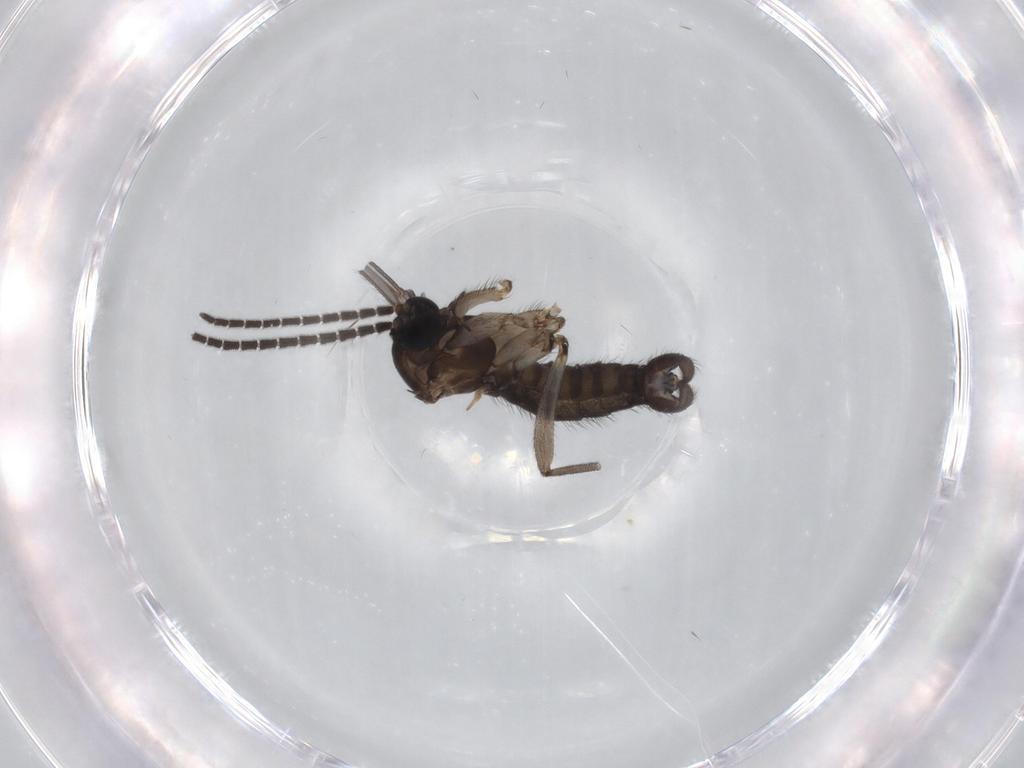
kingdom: Animalia
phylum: Arthropoda
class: Insecta
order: Diptera
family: Sciaridae
